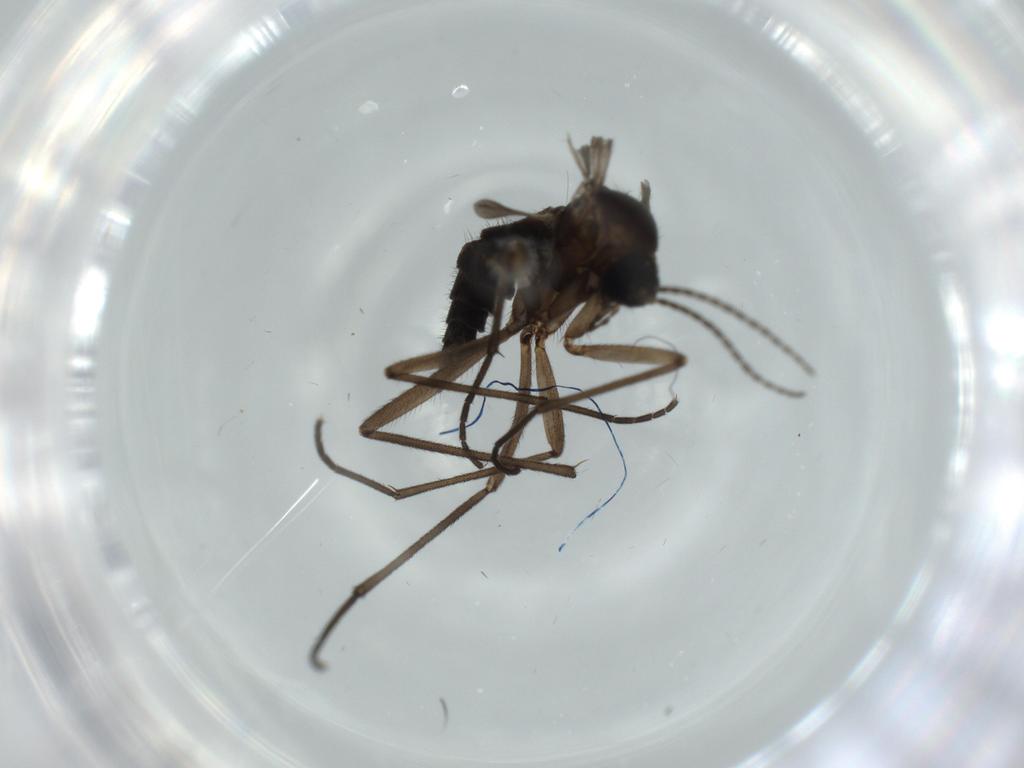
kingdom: Animalia
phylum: Arthropoda
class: Insecta
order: Diptera
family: Sciaridae
